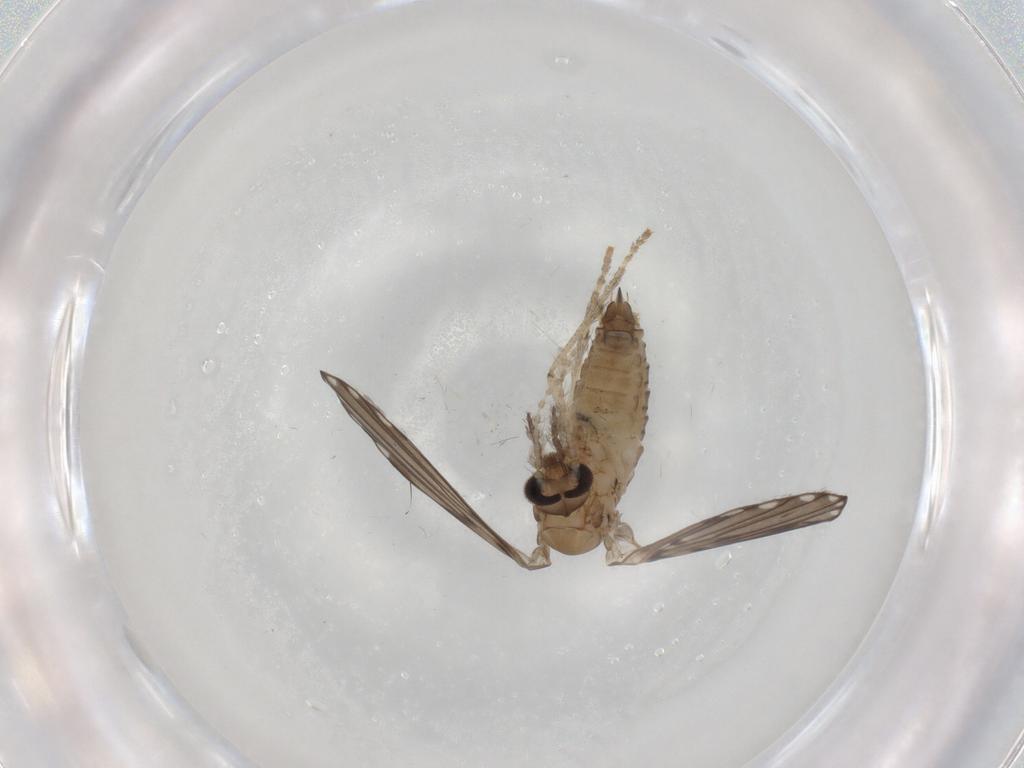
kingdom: Animalia
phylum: Arthropoda
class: Insecta
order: Diptera
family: Psychodidae
